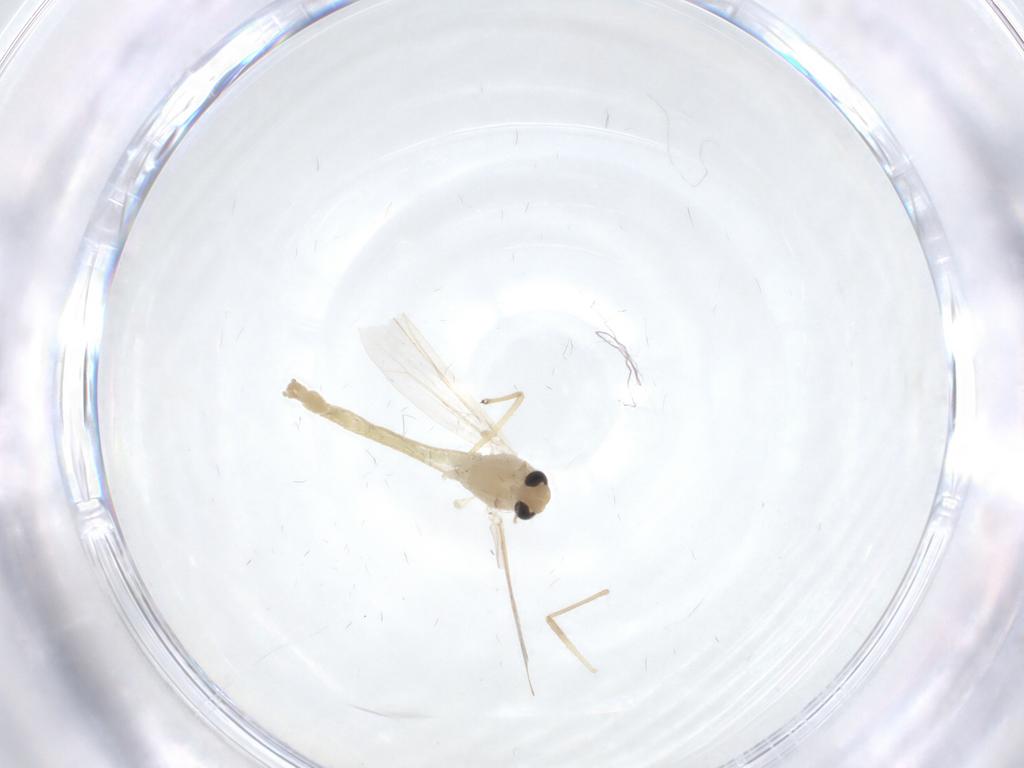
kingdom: Animalia
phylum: Arthropoda
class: Insecta
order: Diptera
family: Chironomidae
